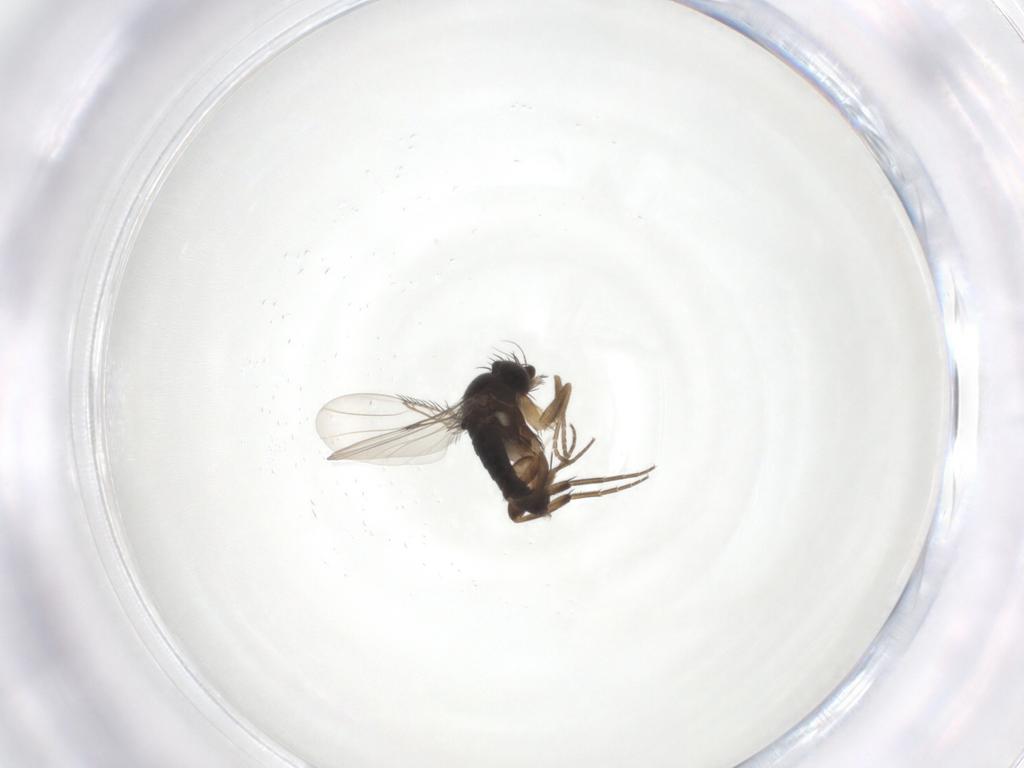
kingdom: Animalia
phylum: Arthropoda
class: Insecta
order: Diptera
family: Phoridae
